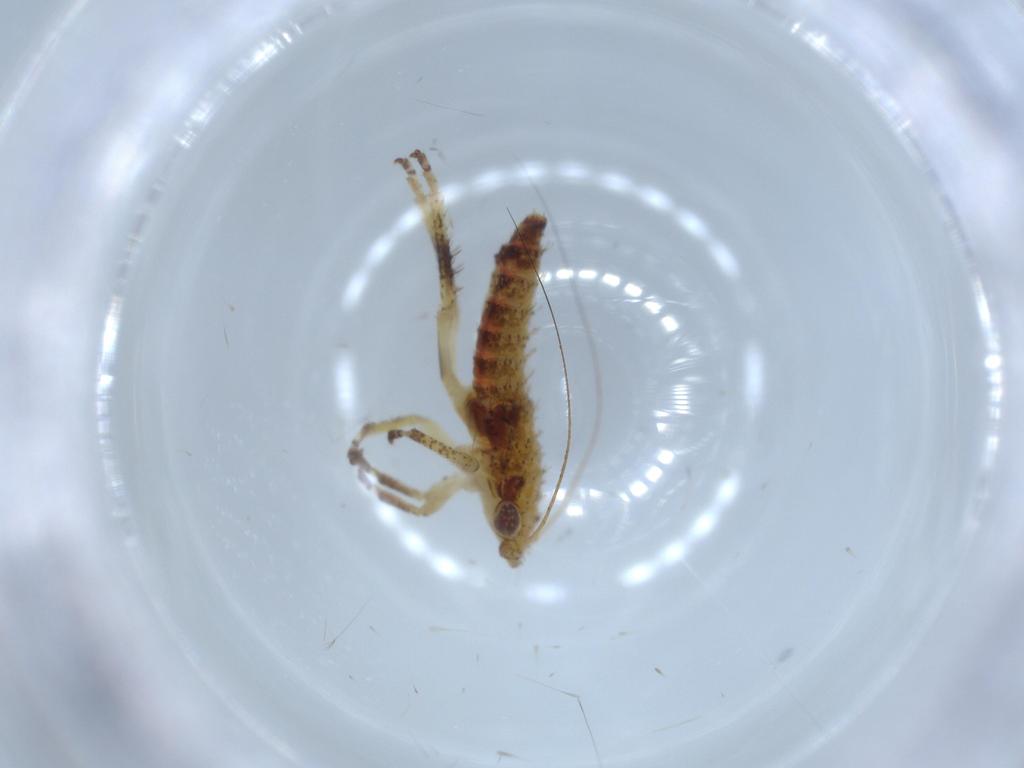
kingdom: Animalia
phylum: Arthropoda
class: Insecta
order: Hemiptera
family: Cicadellidae
